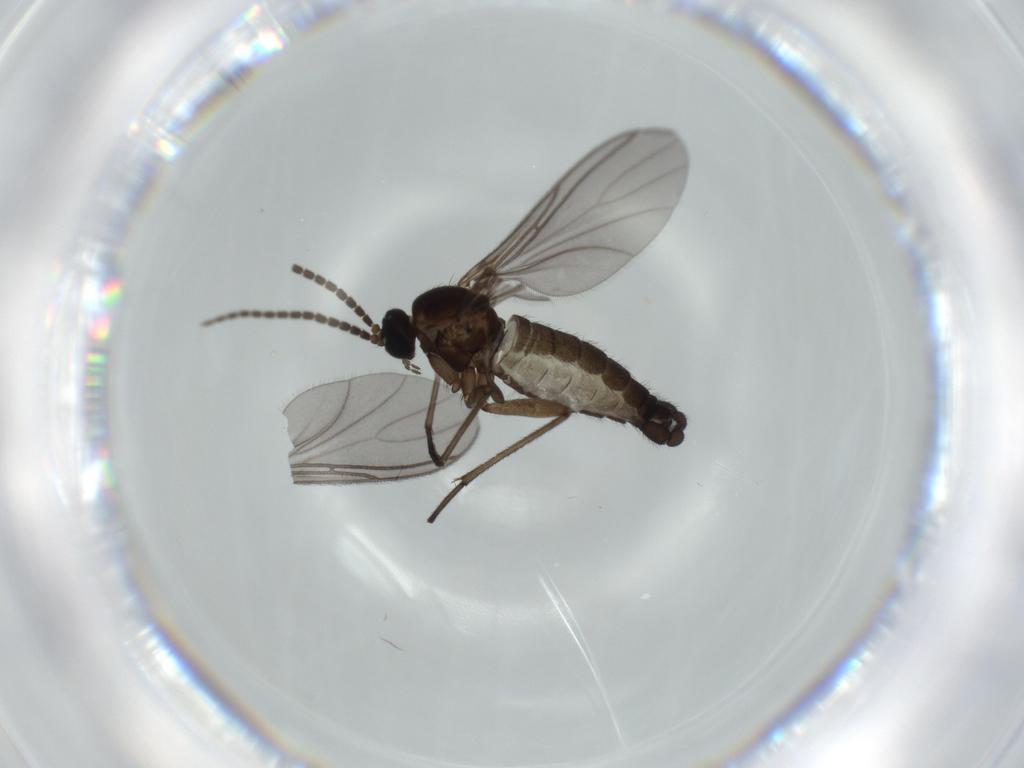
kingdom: Animalia
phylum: Arthropoda
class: Insecta
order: Diptera
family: Sciaridae
